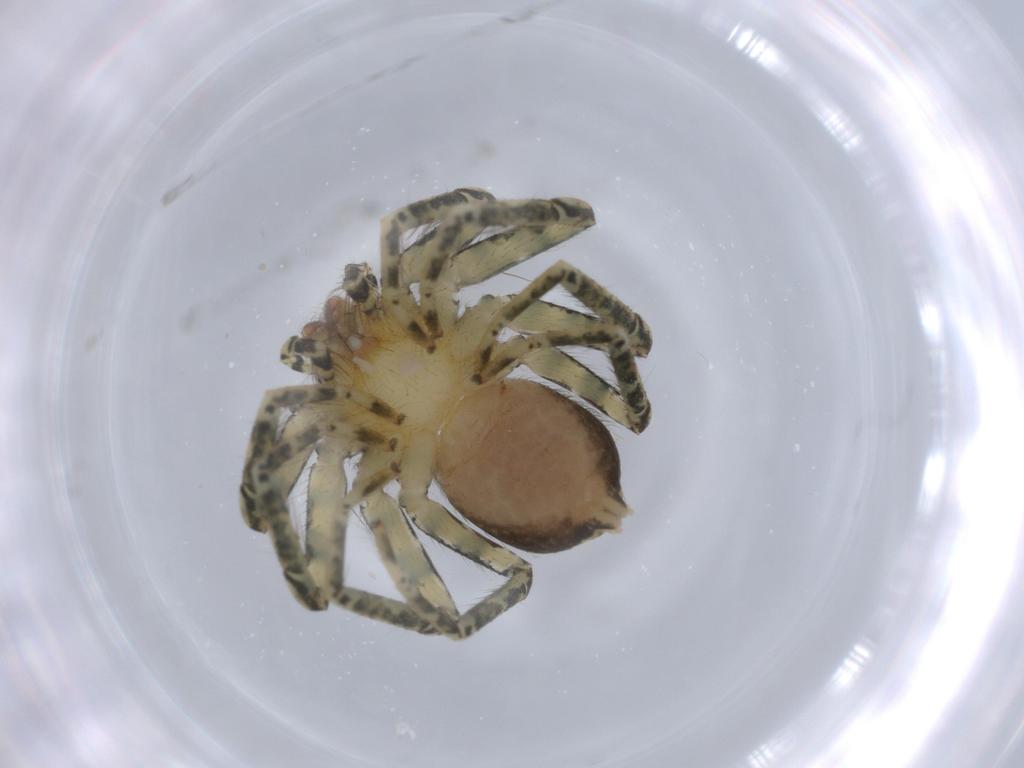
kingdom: Animalia
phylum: Arthropoda
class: Arachnida
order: Araneae
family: Selenopidae
